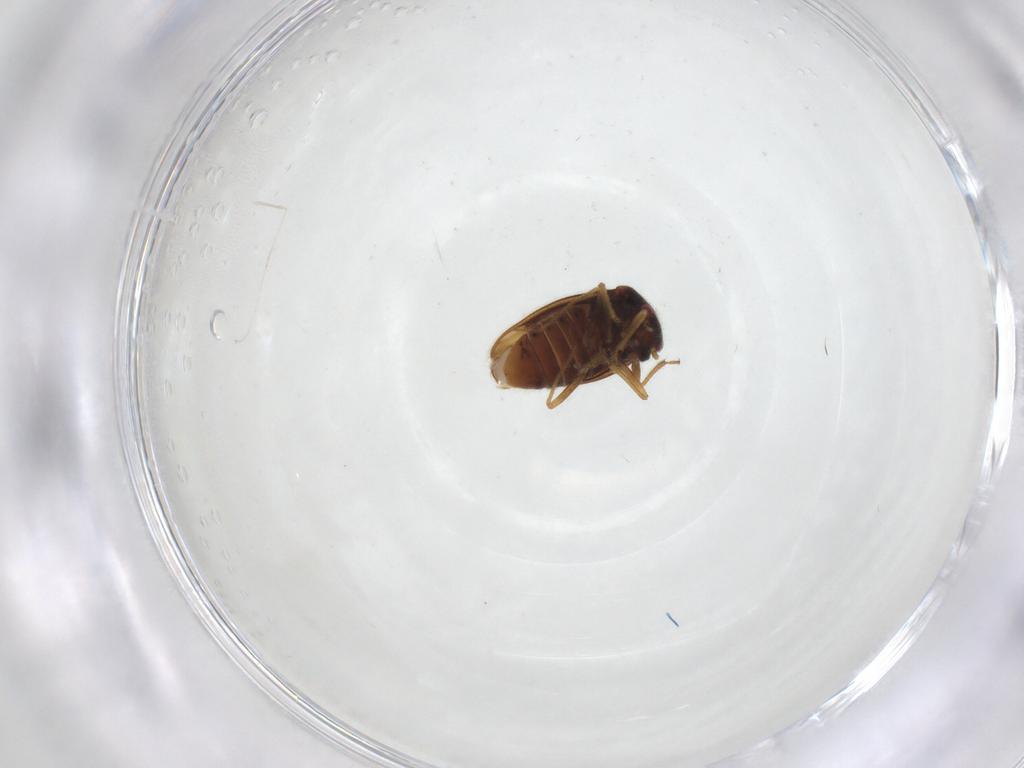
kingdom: Animalia
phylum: Arthropoda
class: Insecta
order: Hemiptera
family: Schizopteridae
